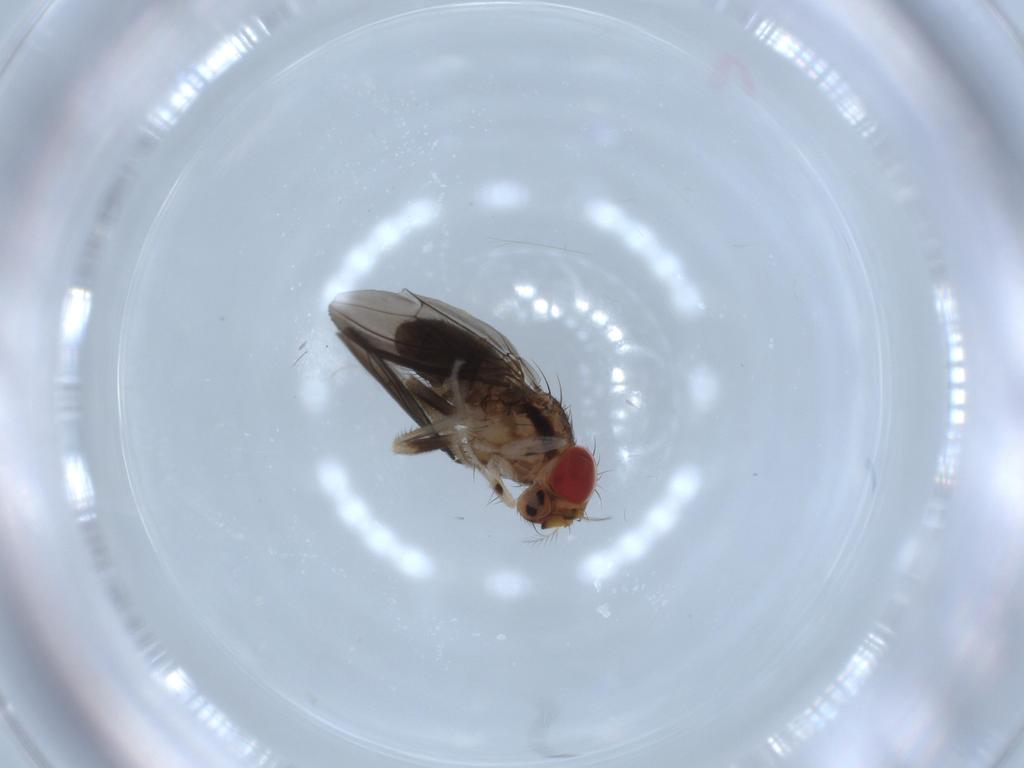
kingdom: Animalia
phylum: Arthropoda
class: Insecta
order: Diptera
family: Drosophilidae
